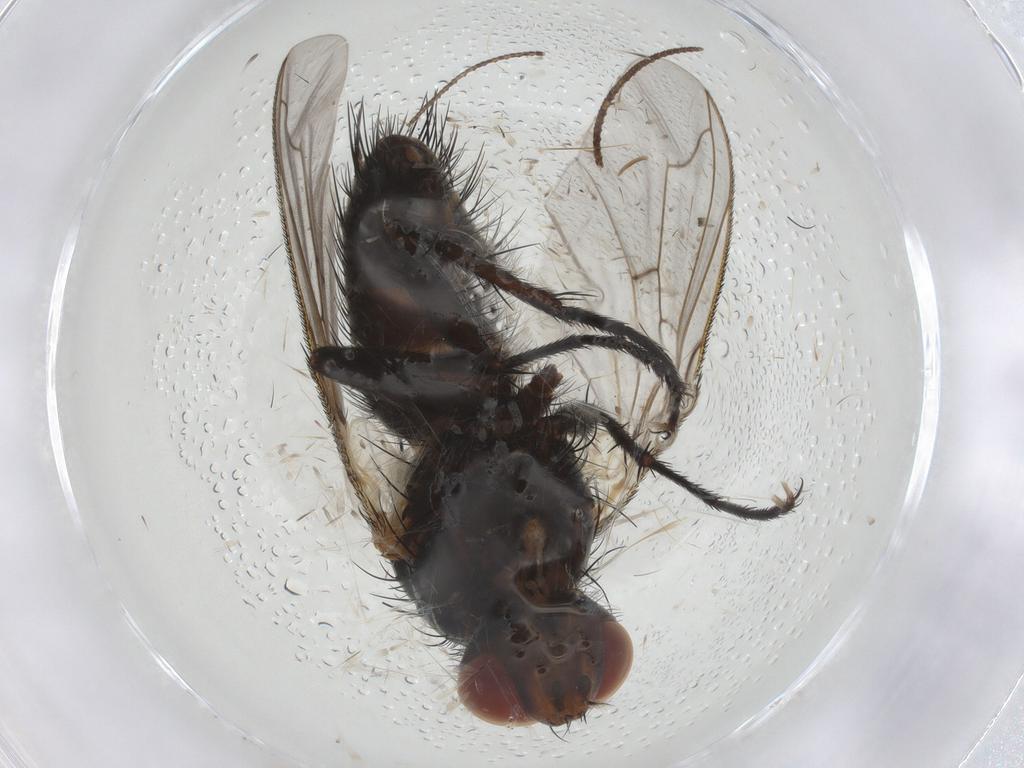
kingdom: Animalia
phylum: Arthropoda
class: Insecta
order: Diptera
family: Tachinidae
